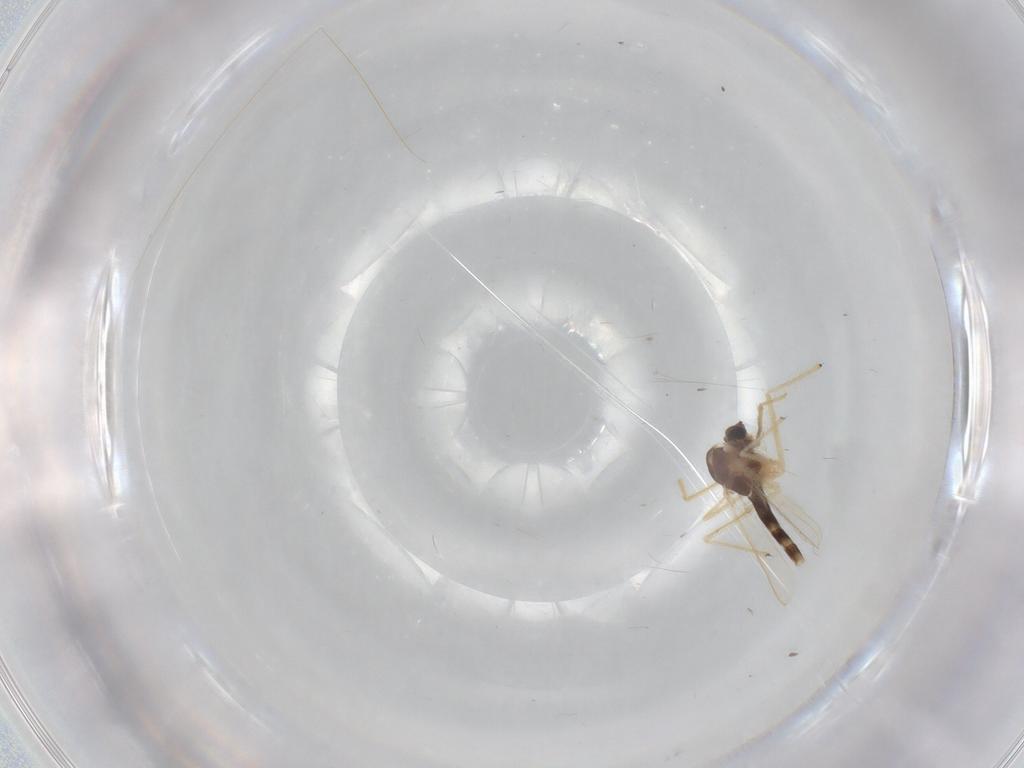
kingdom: Animalia
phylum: Arthropoda
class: Insecta
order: Diptera
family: Chironomidae
